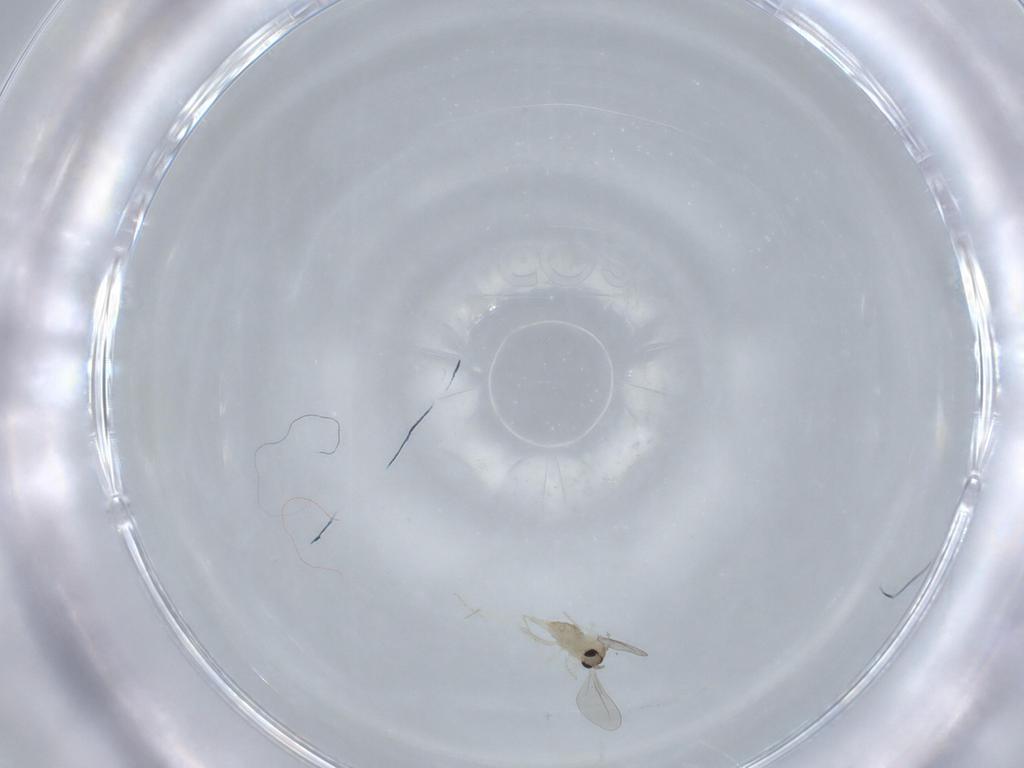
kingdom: Animalia
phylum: Arthropoda
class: Insecta
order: Diptera
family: Cecidomyiidae
